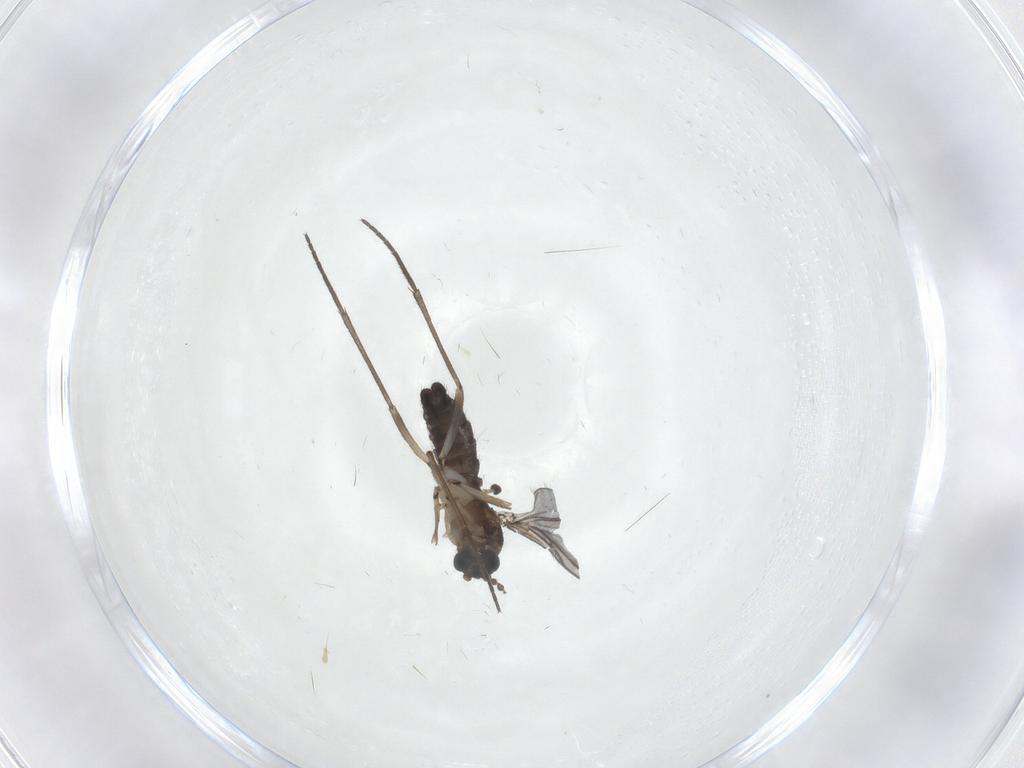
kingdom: Animalia
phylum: Arthropoda
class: Insecta
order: Diptera
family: Sciaridae
